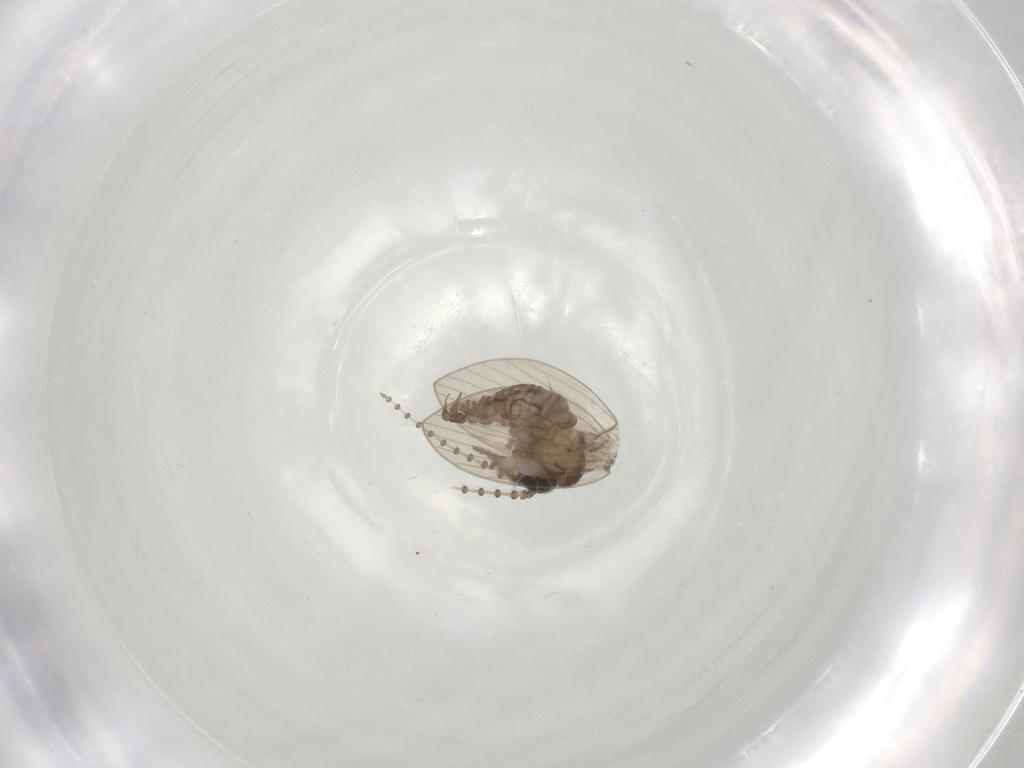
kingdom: Animalia
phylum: Arthropoda
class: Insecta
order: Diptera
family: Psychodidae
